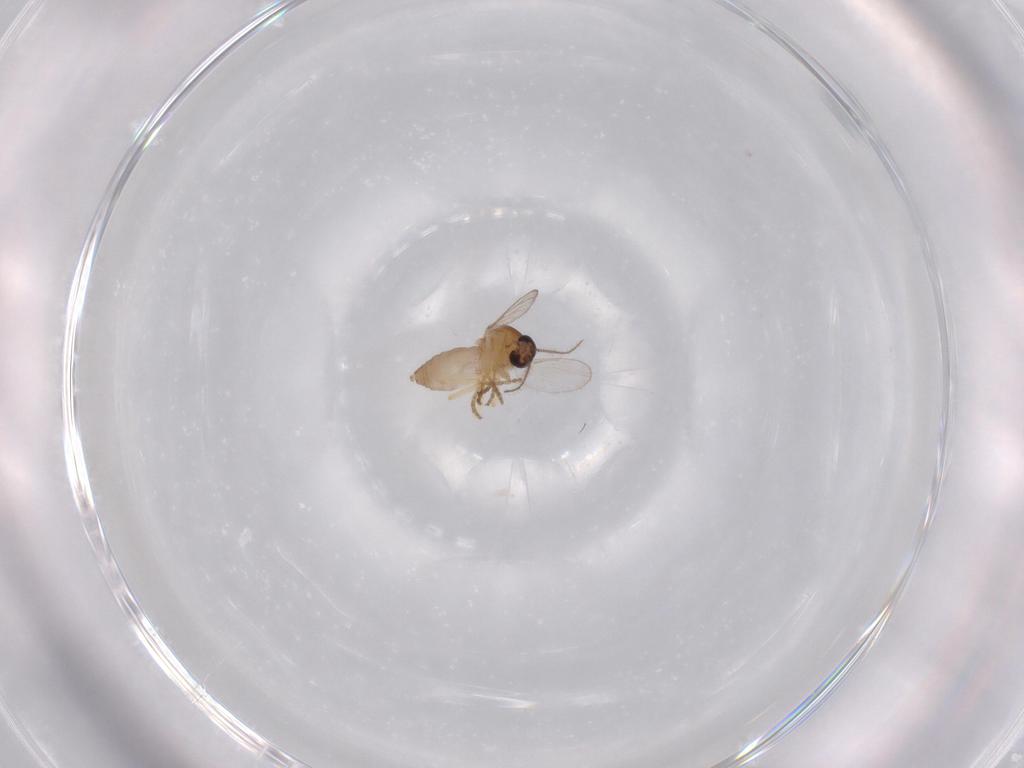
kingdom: Animalia
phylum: Arthropoda
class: Insecta
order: Diptera
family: Ceratopogonidae
